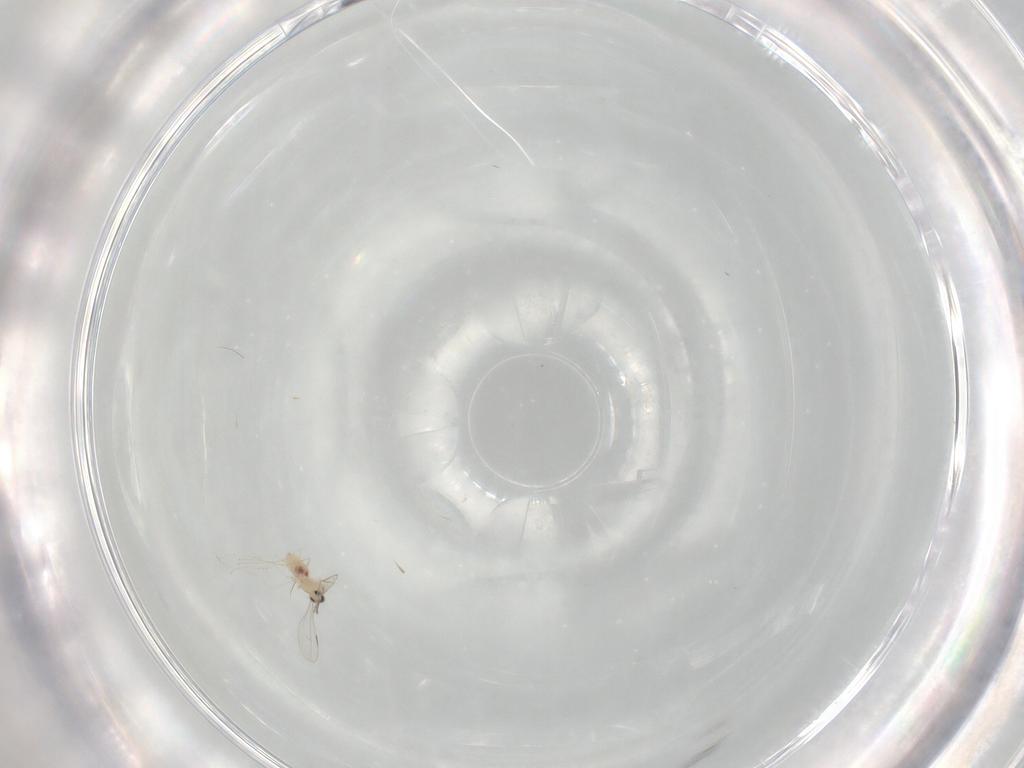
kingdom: Animalia
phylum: Arthropoda
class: Insecta
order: Diptera
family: Cecidomyiidae
